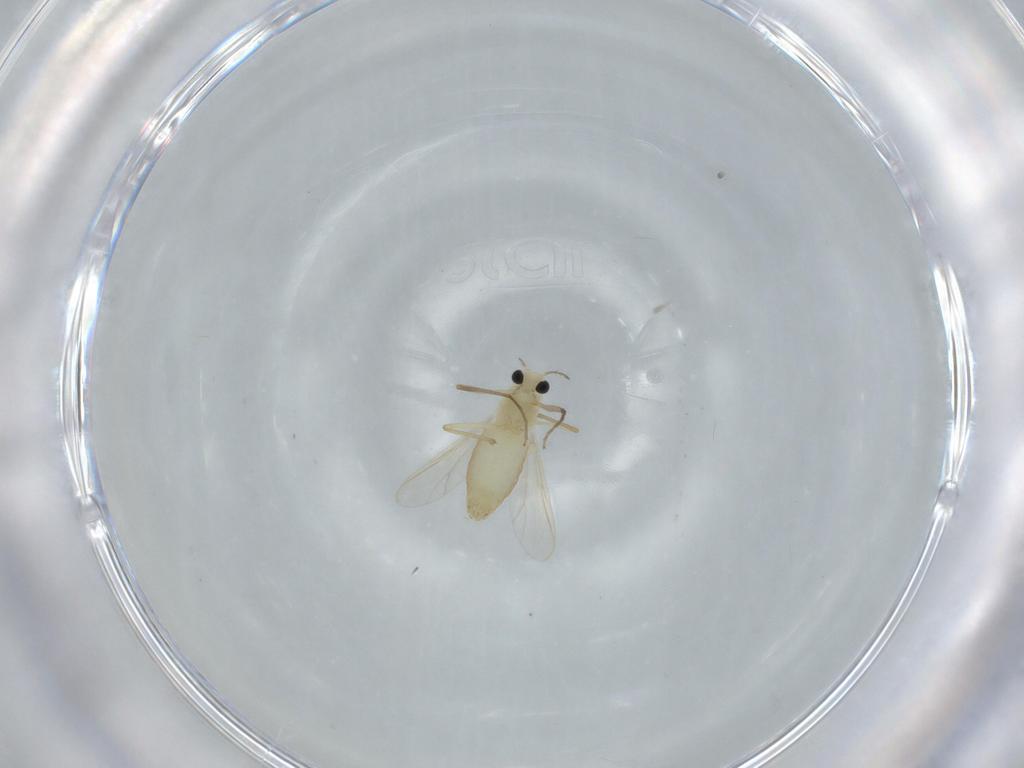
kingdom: Animalia
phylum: Arthropoda
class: Insecta
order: Diptera
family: Chironomidae
